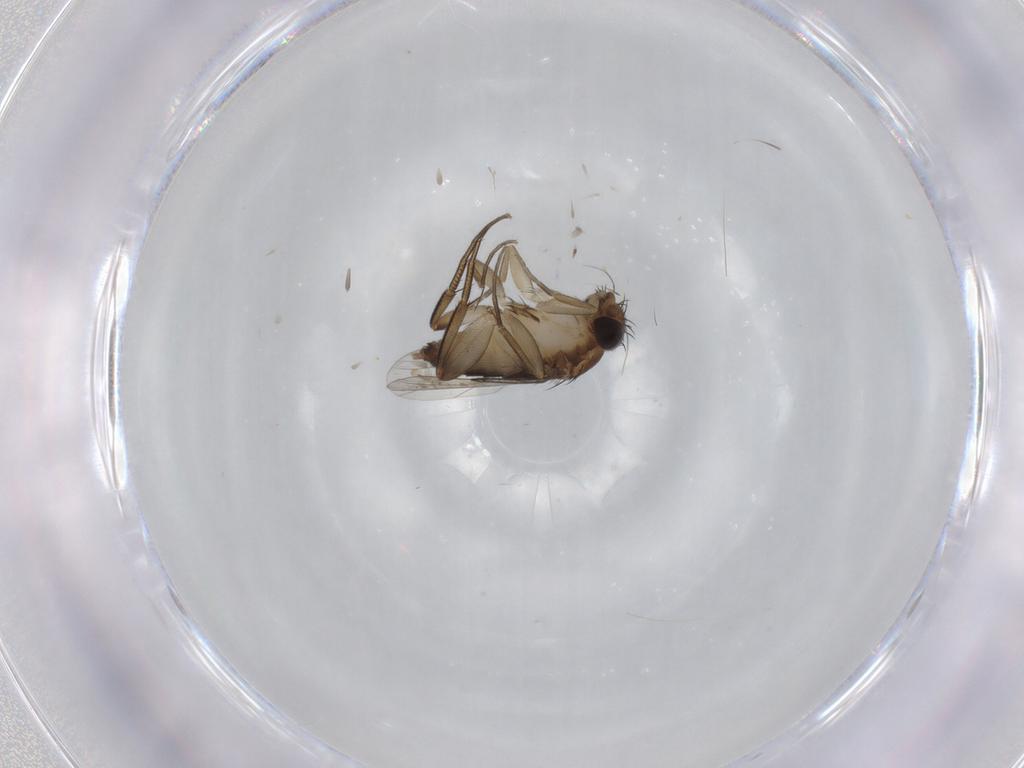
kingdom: Animalia
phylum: Arthropoda
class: Insecta
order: Diptera
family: Phoridae
